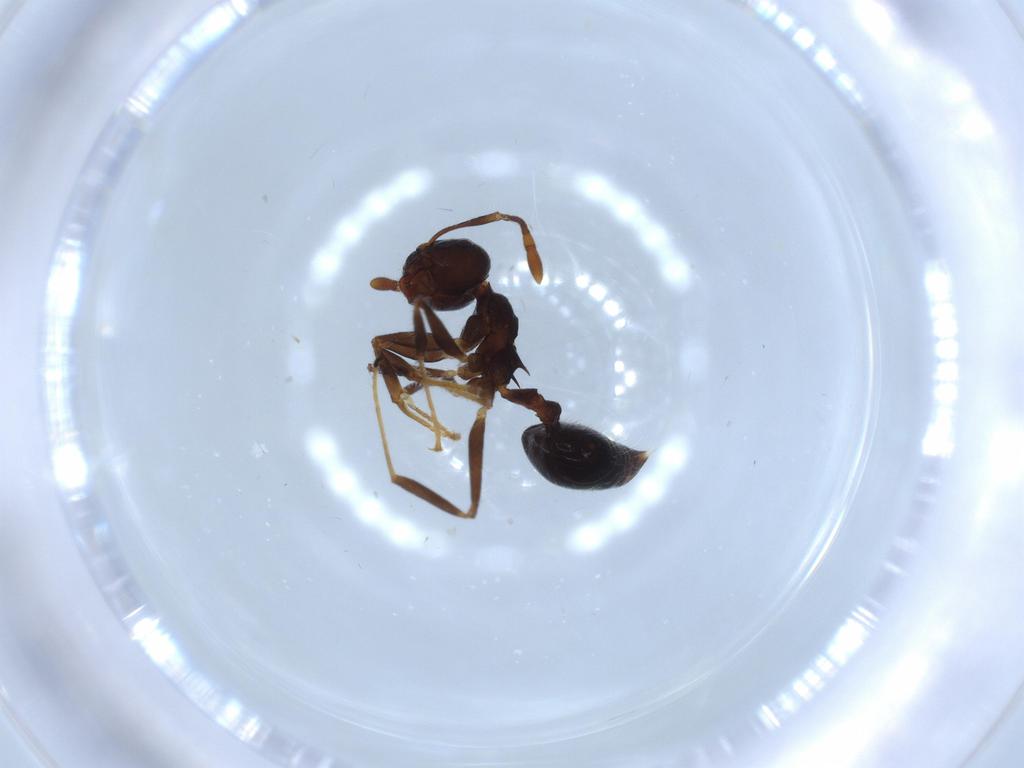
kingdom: Animalia
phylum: Arthropoda
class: Insecta
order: Hymenoptera
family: Formicidae
